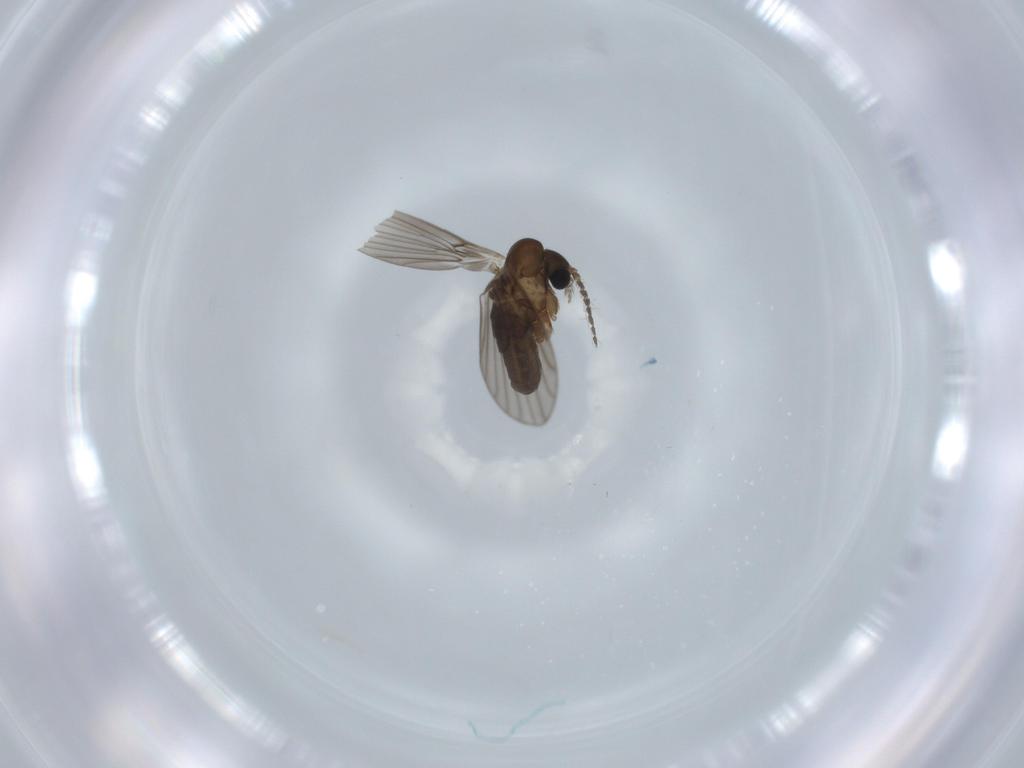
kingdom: Animalia
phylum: Arthropoda
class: Insecta
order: Diptera
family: Psychodidae
